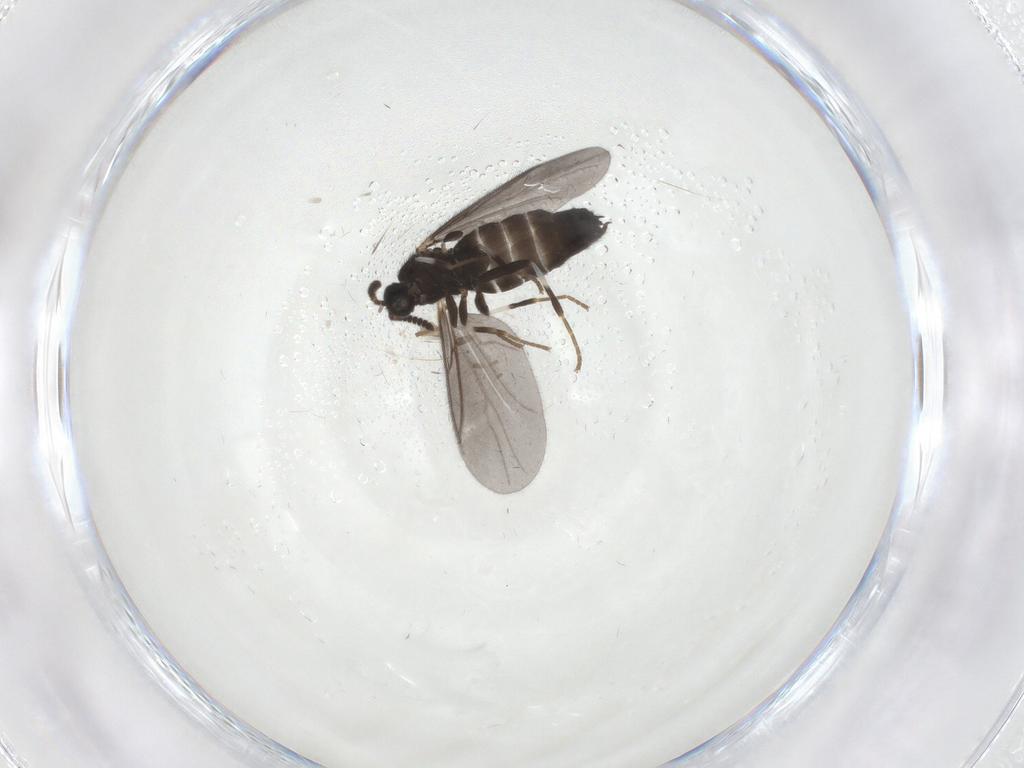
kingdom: Animalia
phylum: Arthropoda
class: Insecta
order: Diptera
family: Scatopsidae
